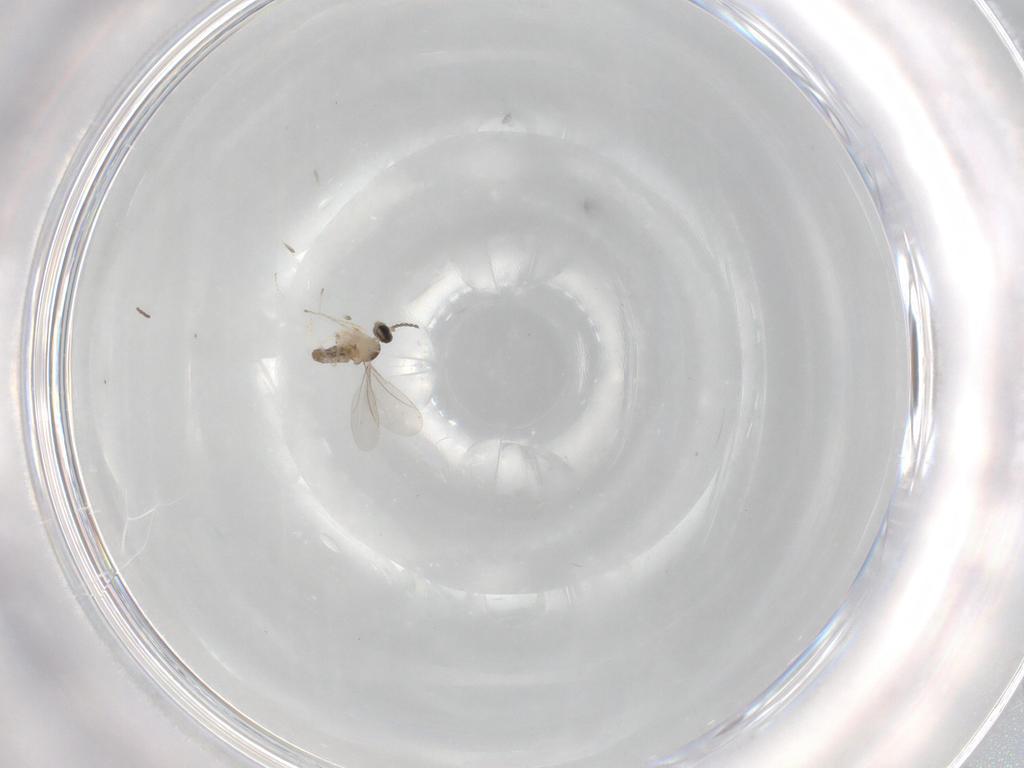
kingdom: Animalia
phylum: Arthropoda
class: Insecta
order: Diptera
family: Cecidomyiidae
